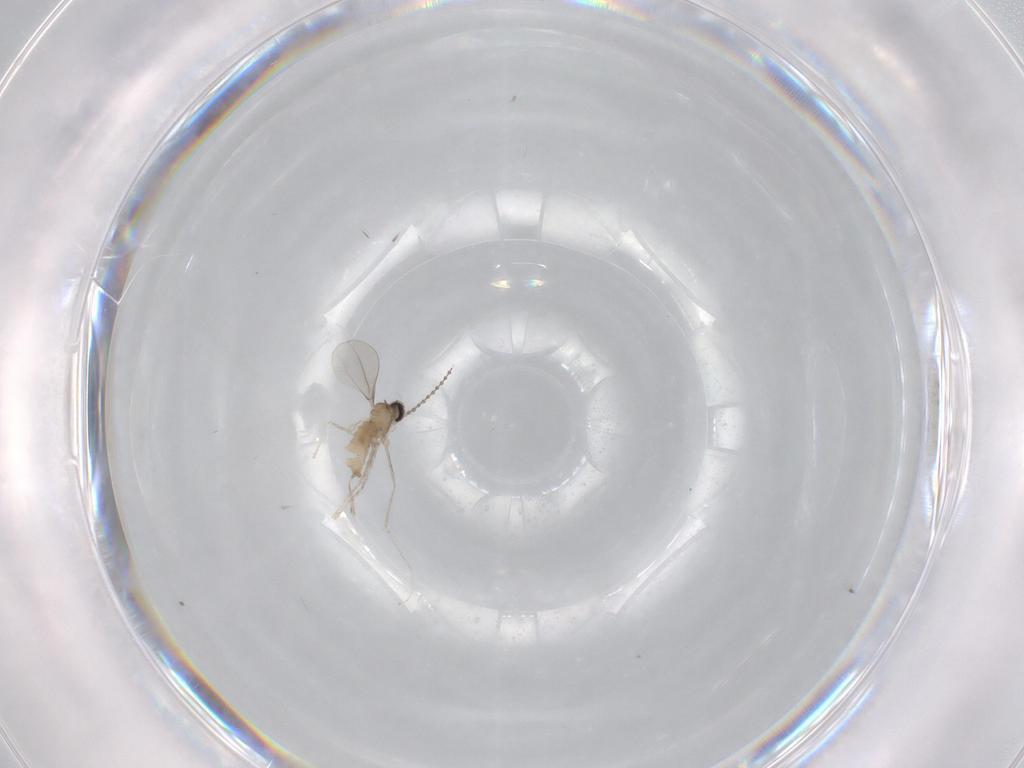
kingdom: Animalia
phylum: Arthropoda
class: Insecta
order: Diptera
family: Cecidomyiidae
